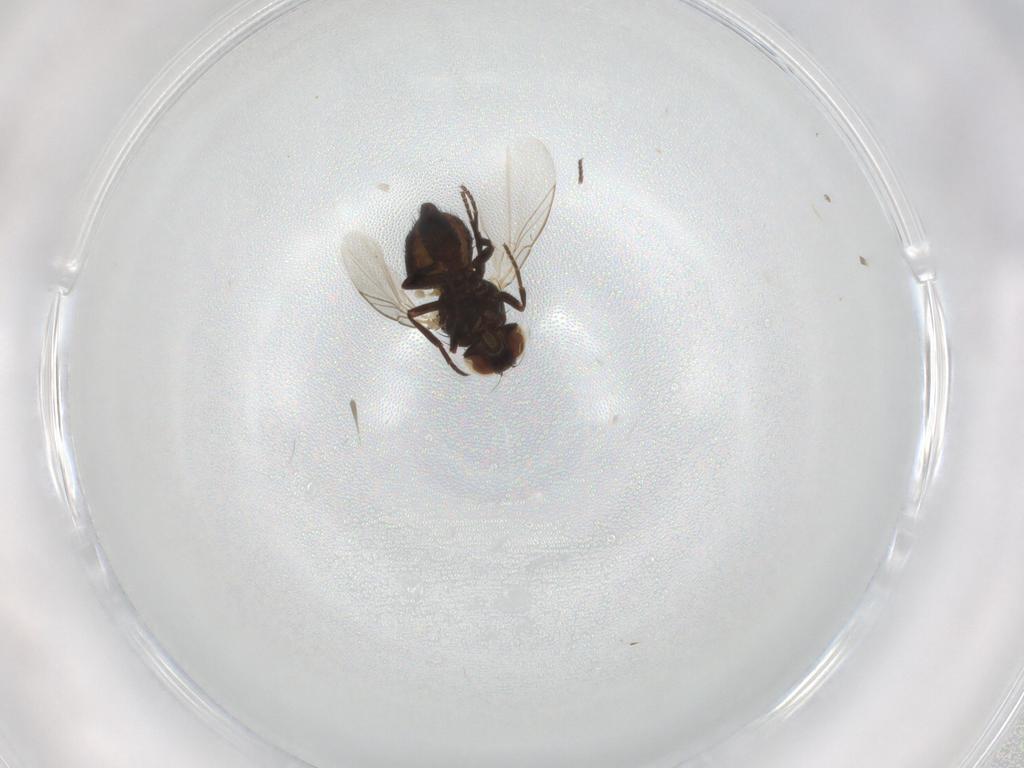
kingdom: Animalia
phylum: Arthropoda
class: Insecta
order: Diptera
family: Agromyzidae
